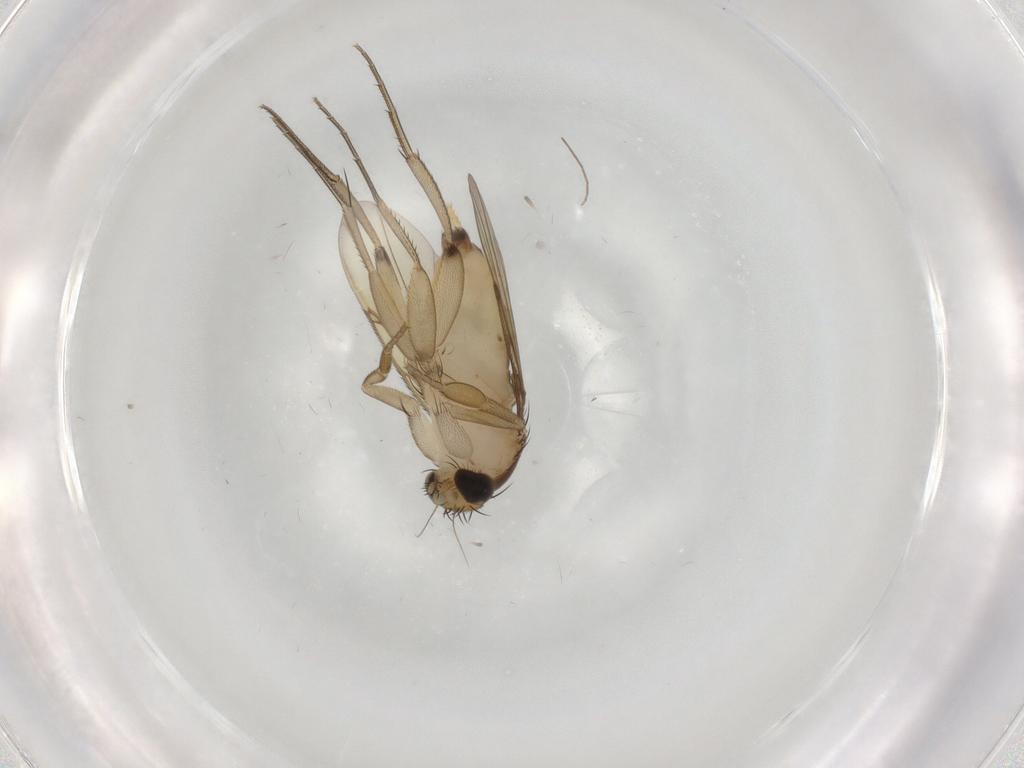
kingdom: Animalia
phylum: Arthropoda
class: Insecta
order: Diptera
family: Phoridae
